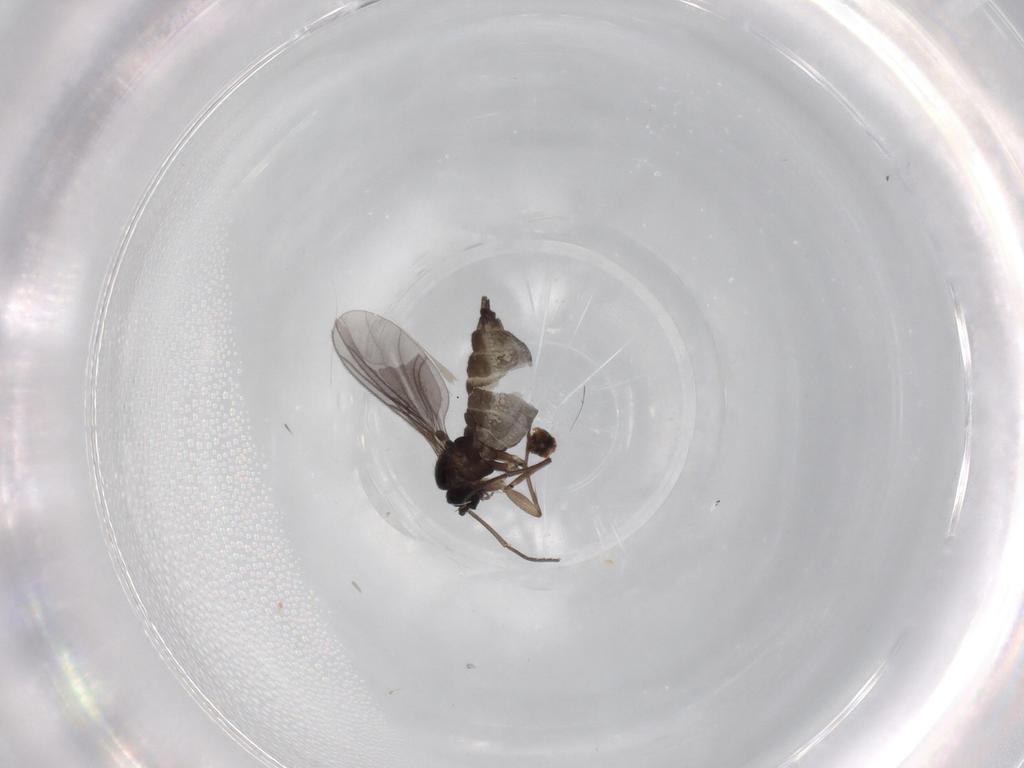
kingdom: Animalia
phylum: Arthropoda
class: Insecta
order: Diptera
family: Sciaridae
